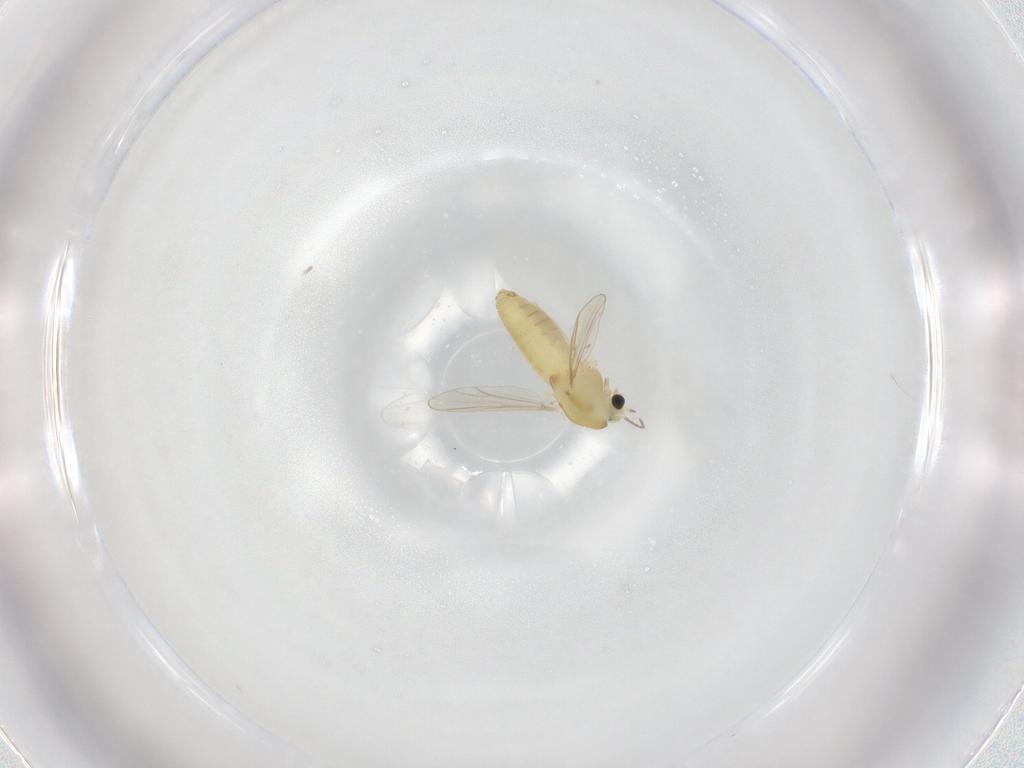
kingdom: Animalia
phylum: Arthropoda
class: Insecta
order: Diptera
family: Chironomidae
